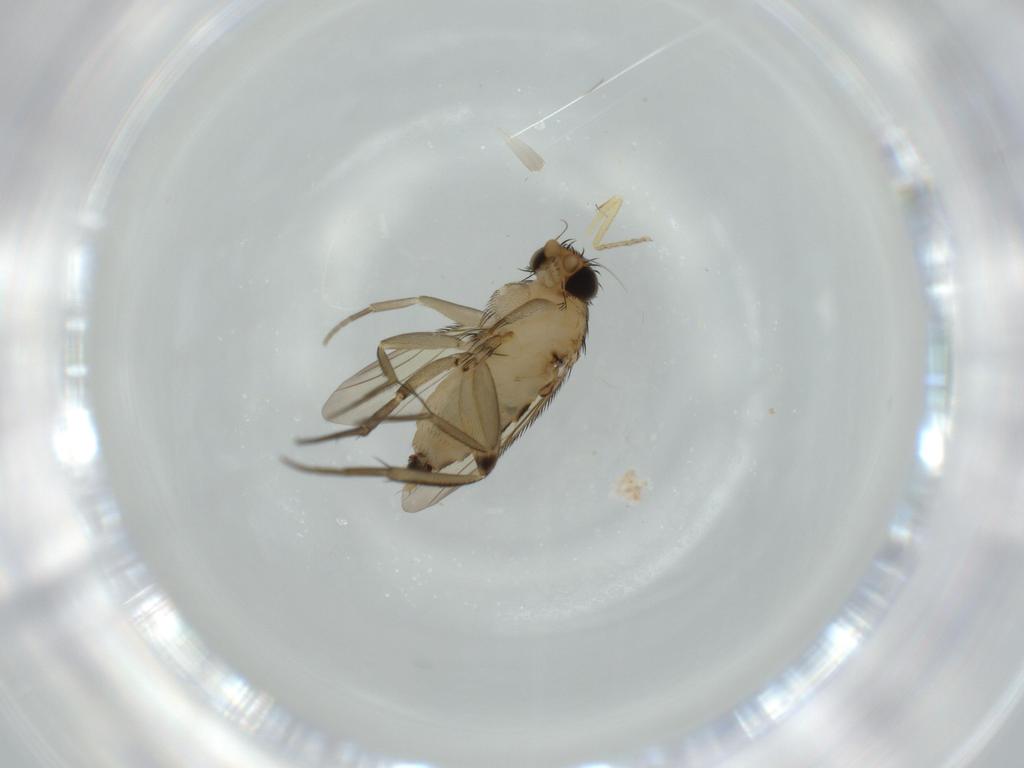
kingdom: Animalia
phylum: Arthropoda
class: Insecta
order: Diptera
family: Phoridae
